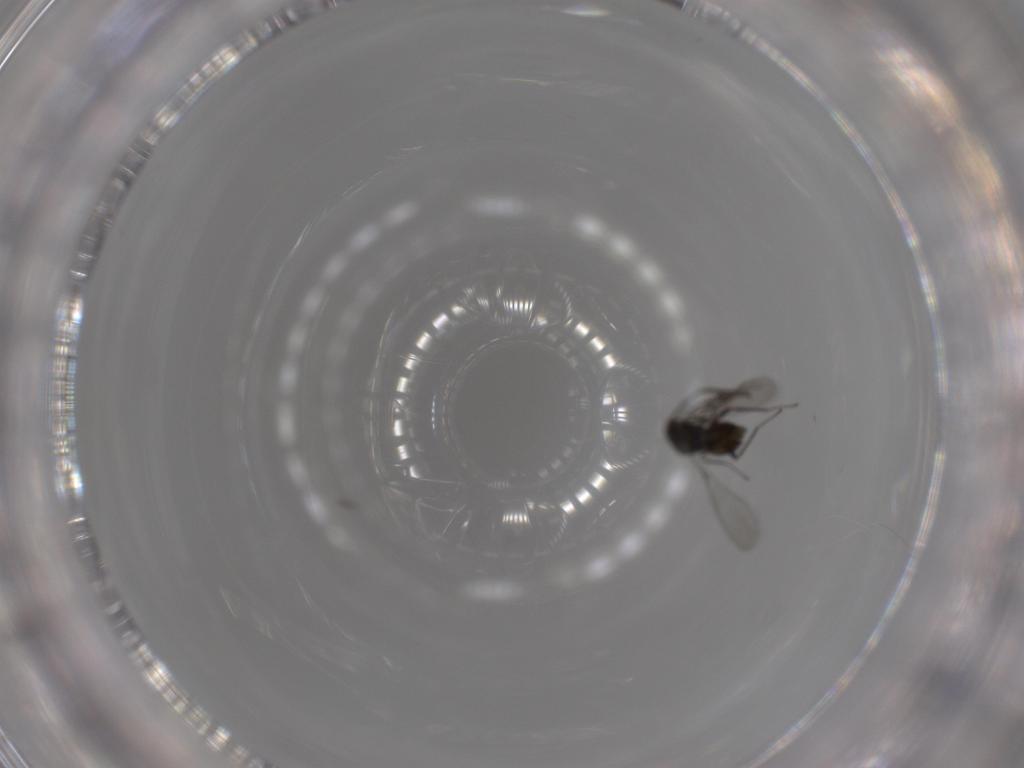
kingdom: Animalia
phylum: Arthropoda
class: Insecta
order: Hymenoptera
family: Mymaridae
